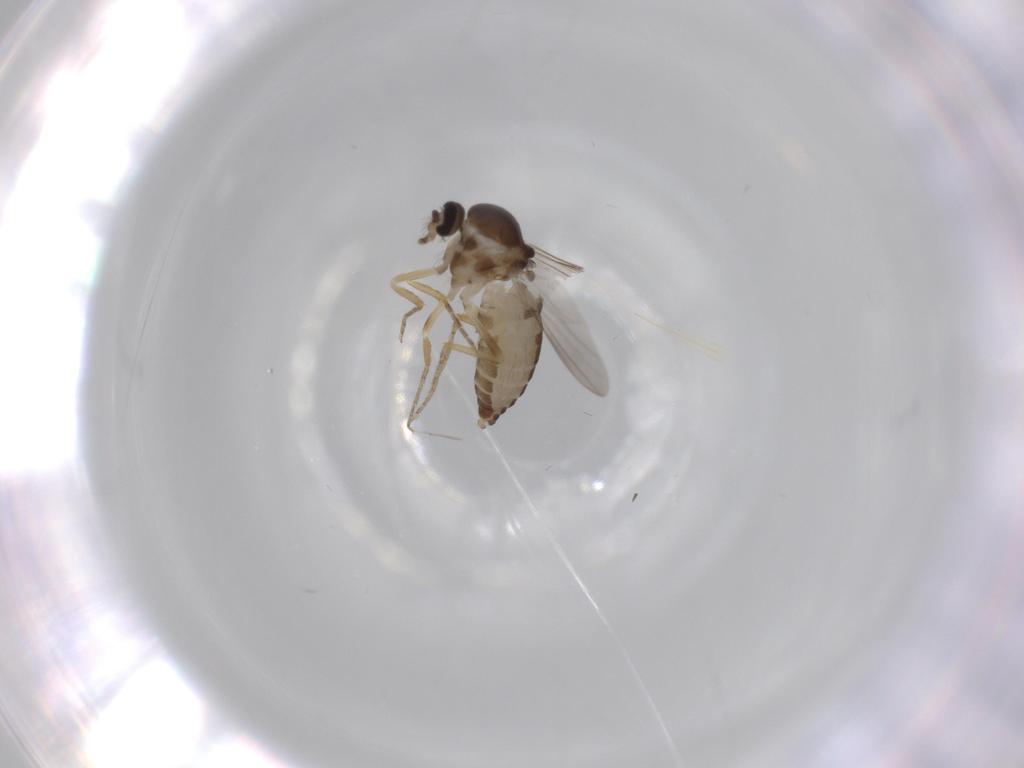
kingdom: Animalia
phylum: Arthropoda
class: Insecta
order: Diptera
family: Ceratopogonidae
